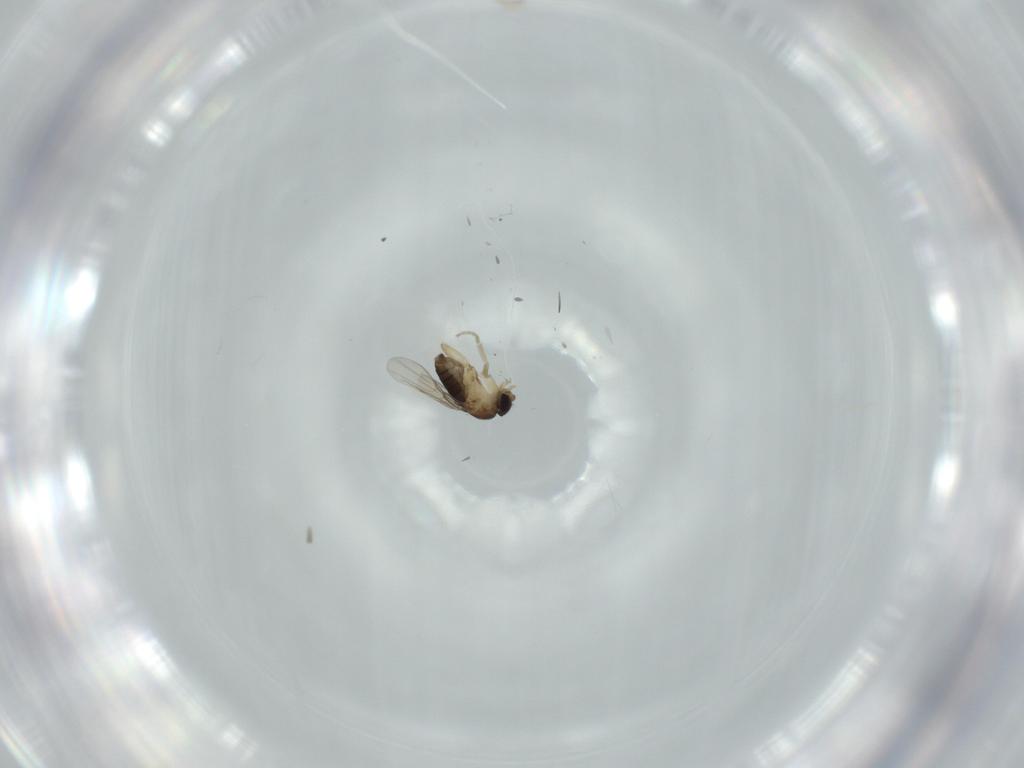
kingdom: Animalia
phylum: Arthropoda
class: Insecta
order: Diptera
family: Phoridae
